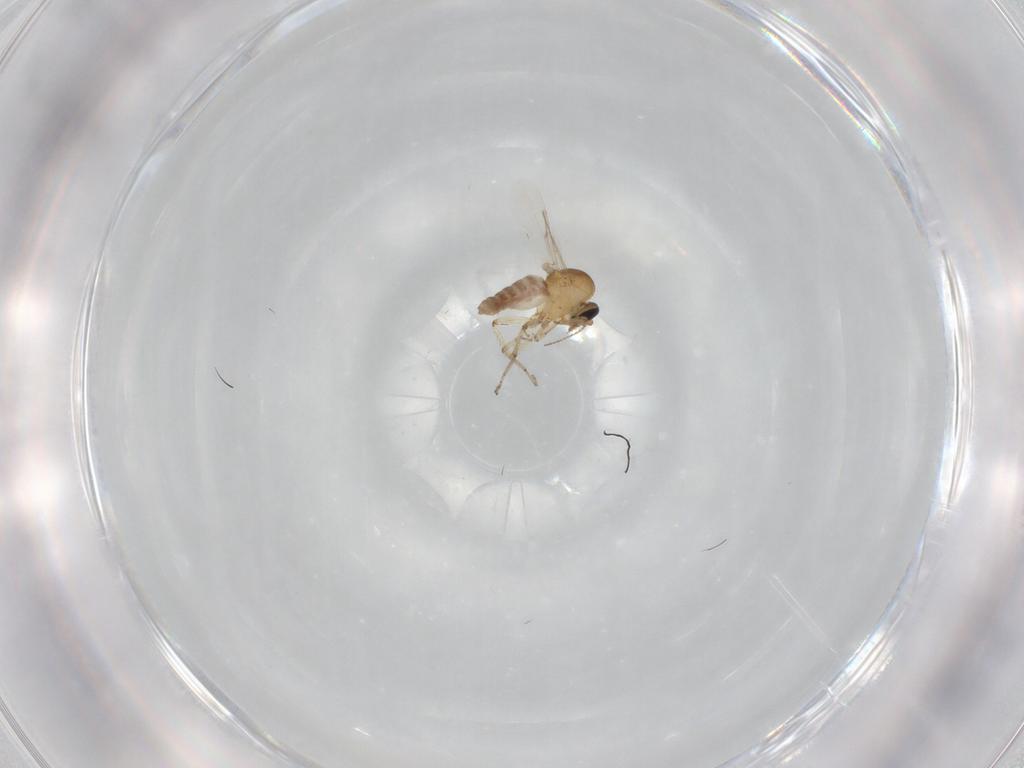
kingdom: Animalia
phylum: Arthropoda
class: Insecta
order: Diptera
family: Ceratopogonidae
